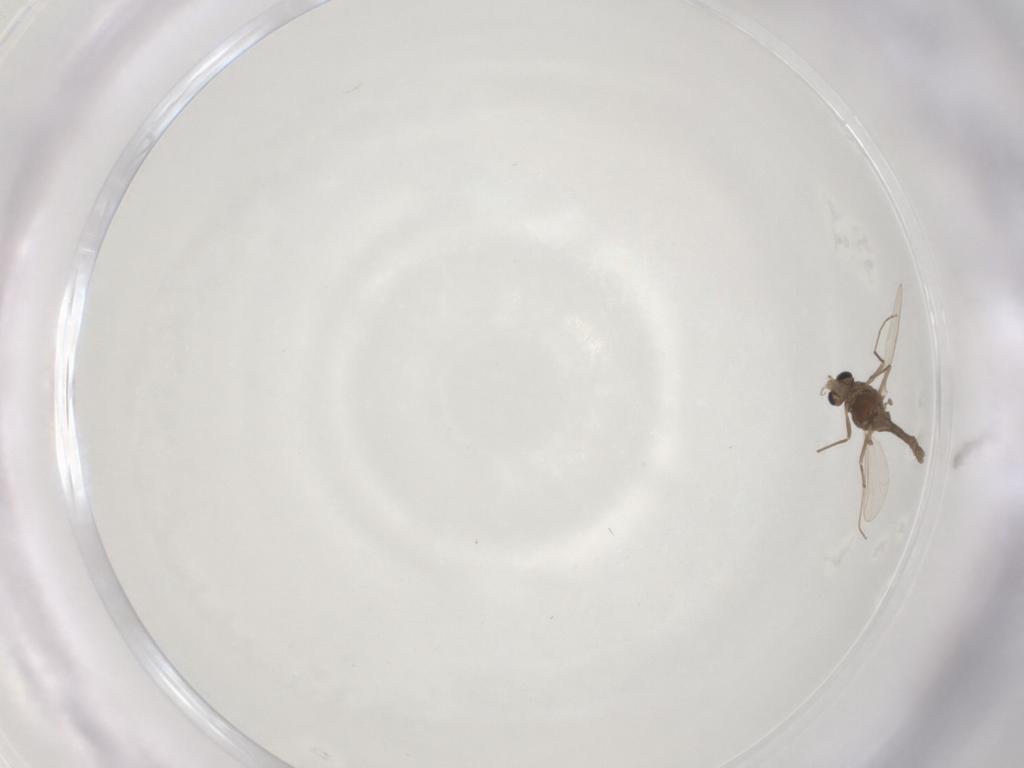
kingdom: Animalia
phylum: Arthropoda
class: Insecta
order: Diptera
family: Chironomidae
